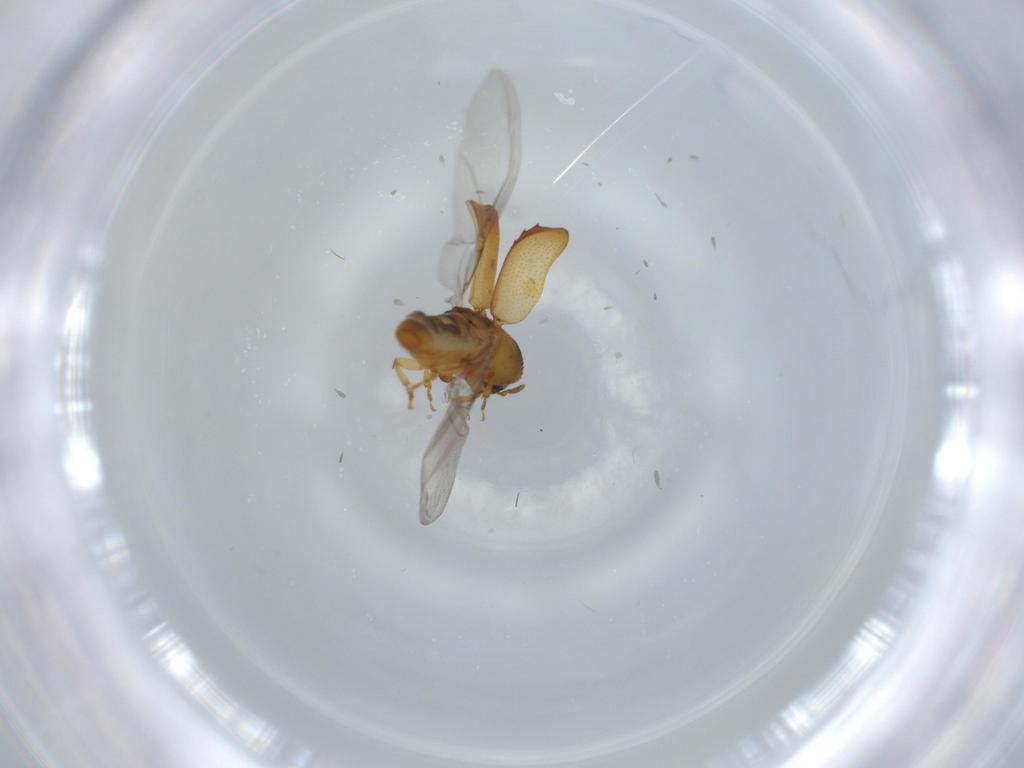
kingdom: Animalia
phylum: Arthropoda
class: Insecta
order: Coleoptera
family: Curculionidae
